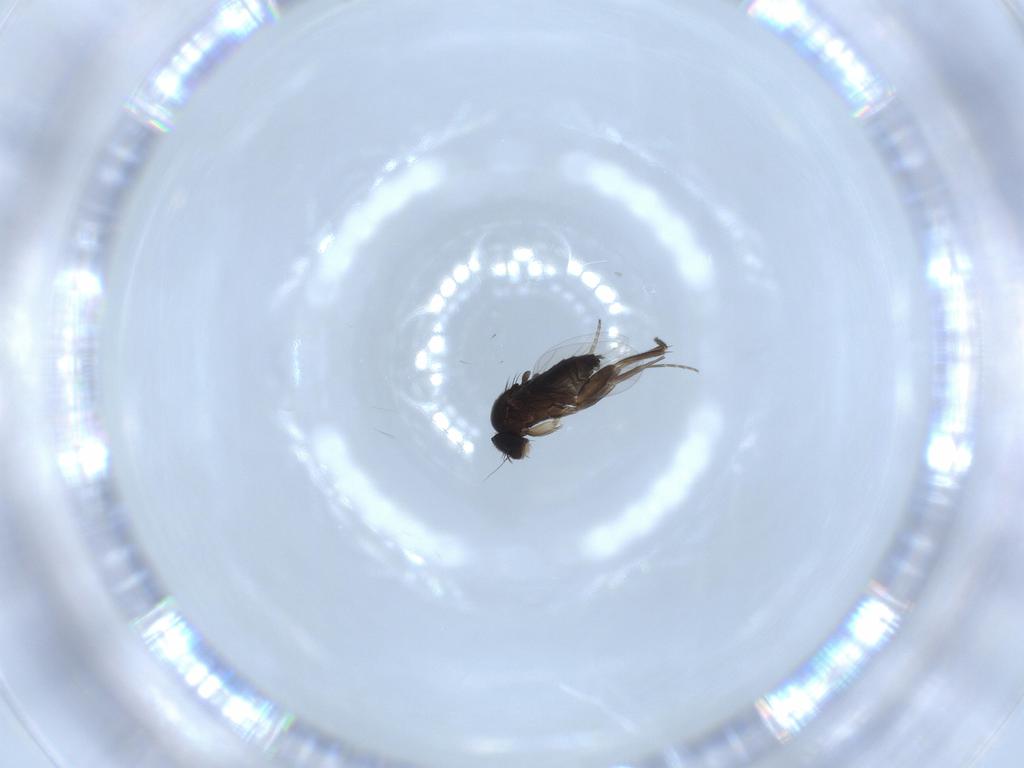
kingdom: Animalia
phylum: Arthropoda
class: Insecta
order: Diptera
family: Phoridae
